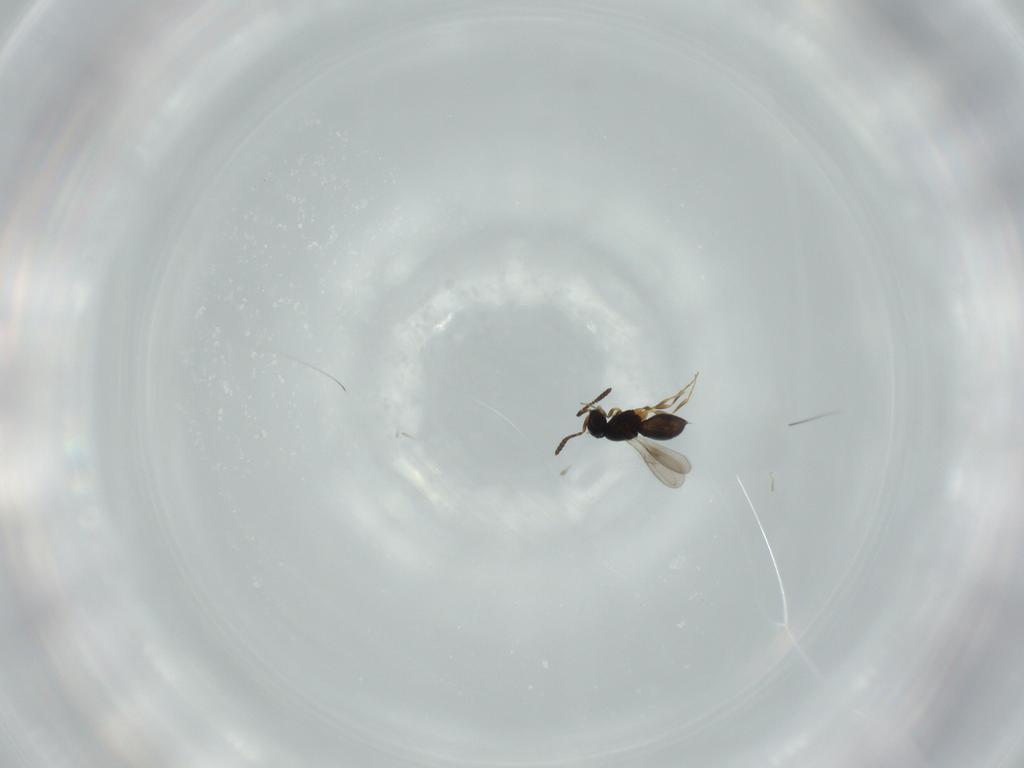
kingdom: Animalia
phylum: Arthropoda
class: Insecta
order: Hymenoptera
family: Scelionidae
